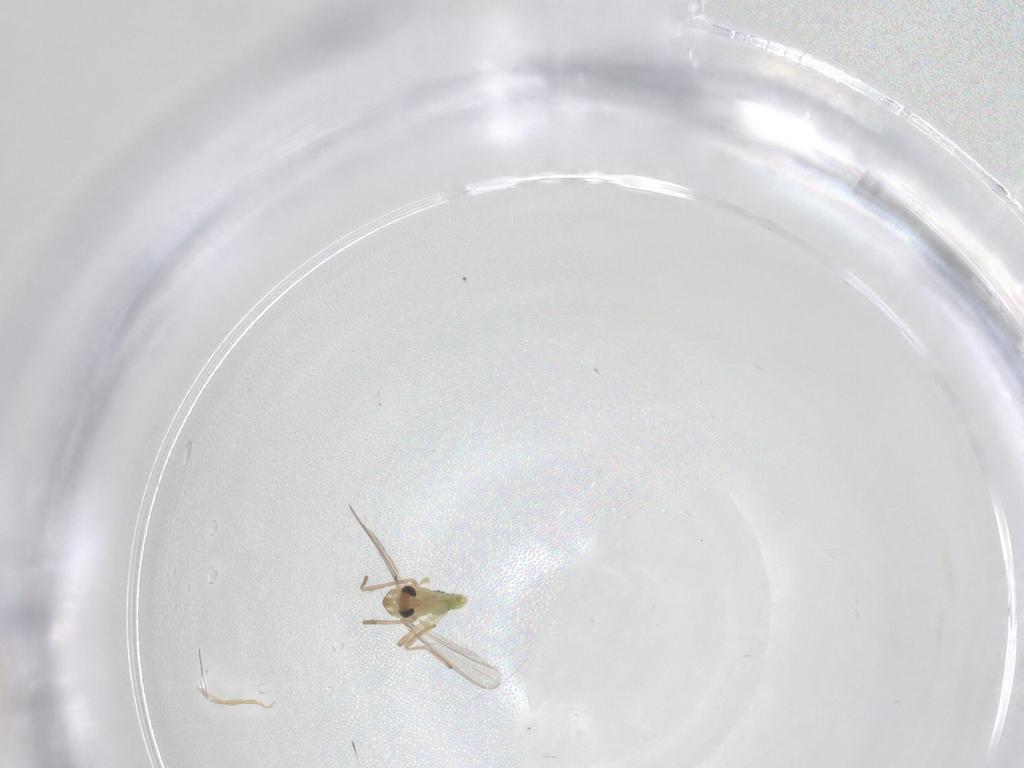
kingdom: Animalia
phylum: Arthropoda
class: Insecta
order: Diptera
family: Chironomidae
